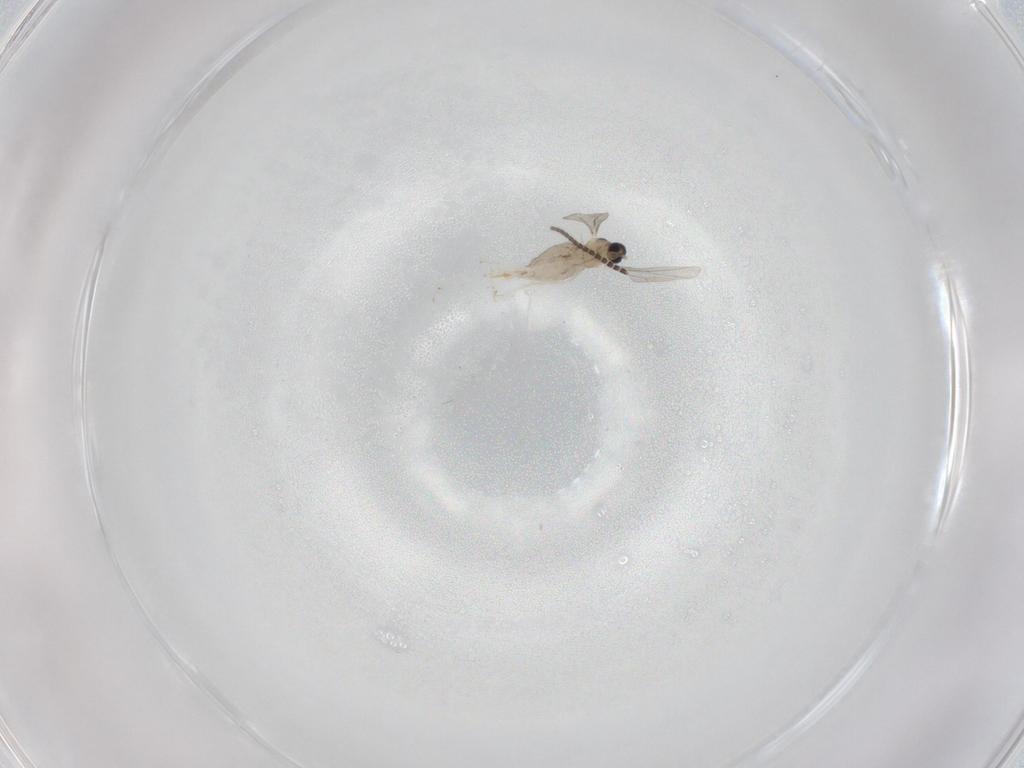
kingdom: Animalia
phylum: Arthropoda
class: Insecta
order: Diptera
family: Cecidomyiidae
